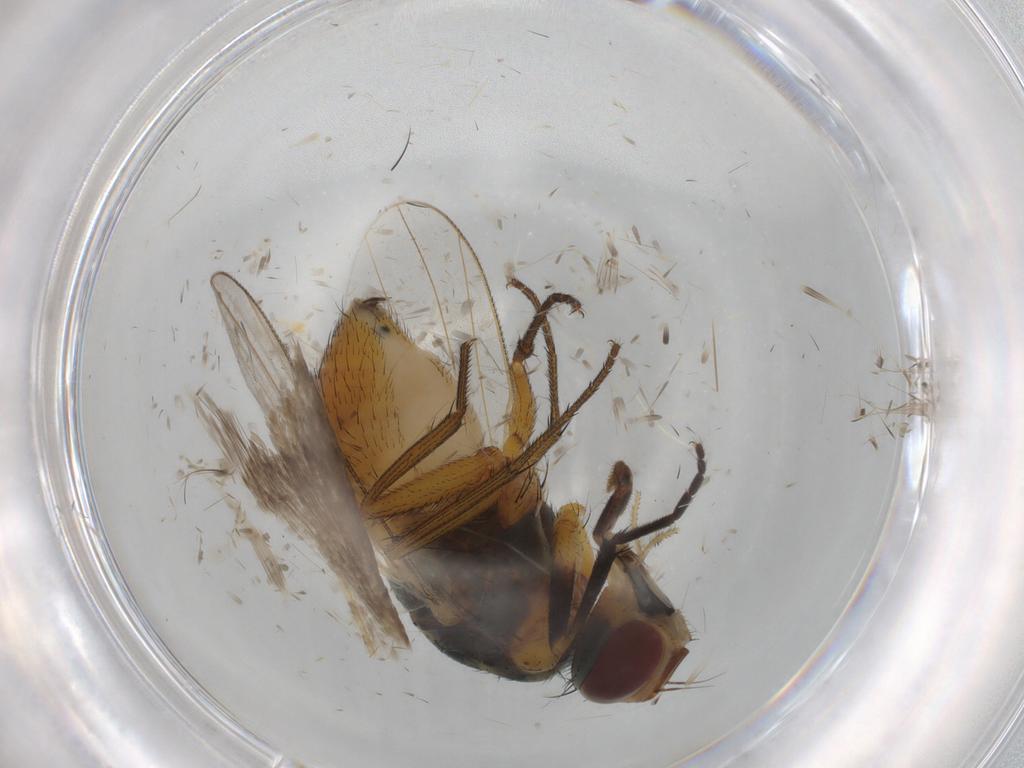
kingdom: Animalia
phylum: Arthropoda
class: Insecta
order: Diptera
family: Muscidae
